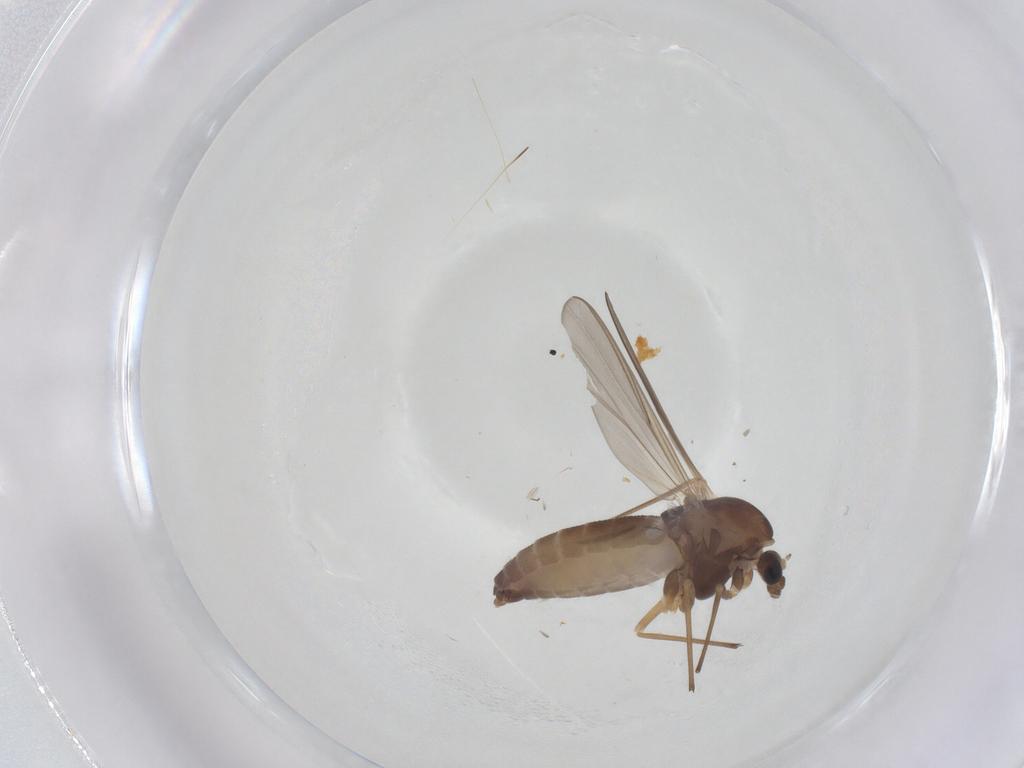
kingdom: Animalia
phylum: Arthropoda
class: Insecta
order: Diptera
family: Chironomidae
